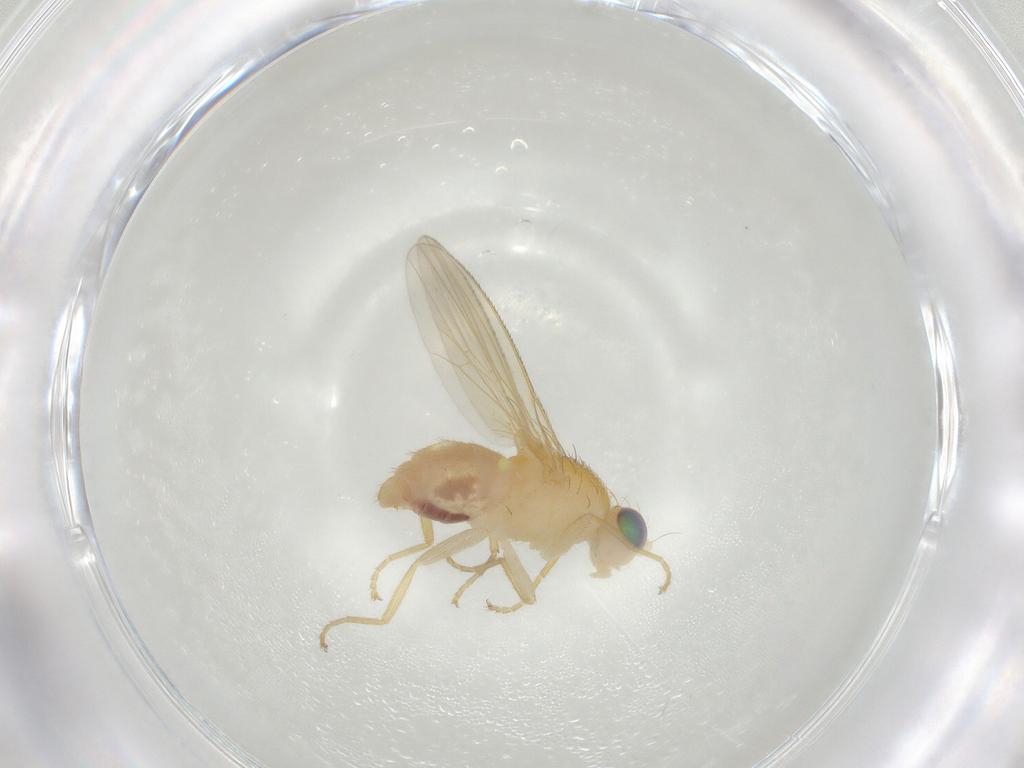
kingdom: Animalia
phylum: Arthropoda
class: Insecta
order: Diptera
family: Chyromyidae
